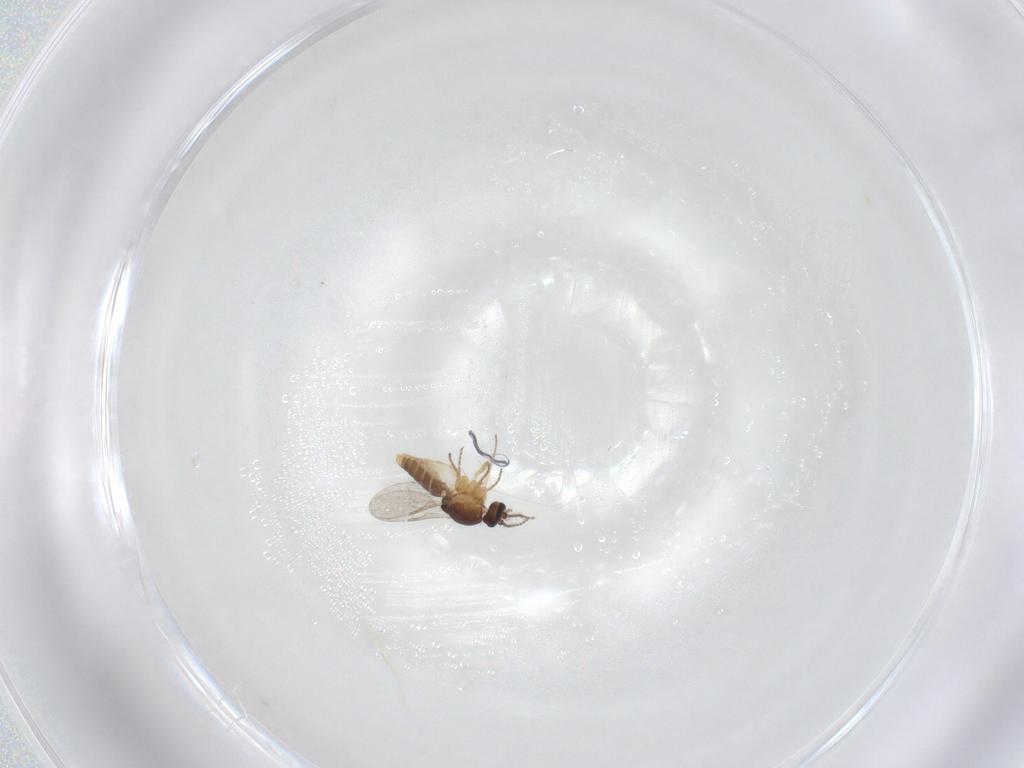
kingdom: Animalia
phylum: Arthropoda
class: Insecta
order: Diptera
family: Ceratopogonidae
